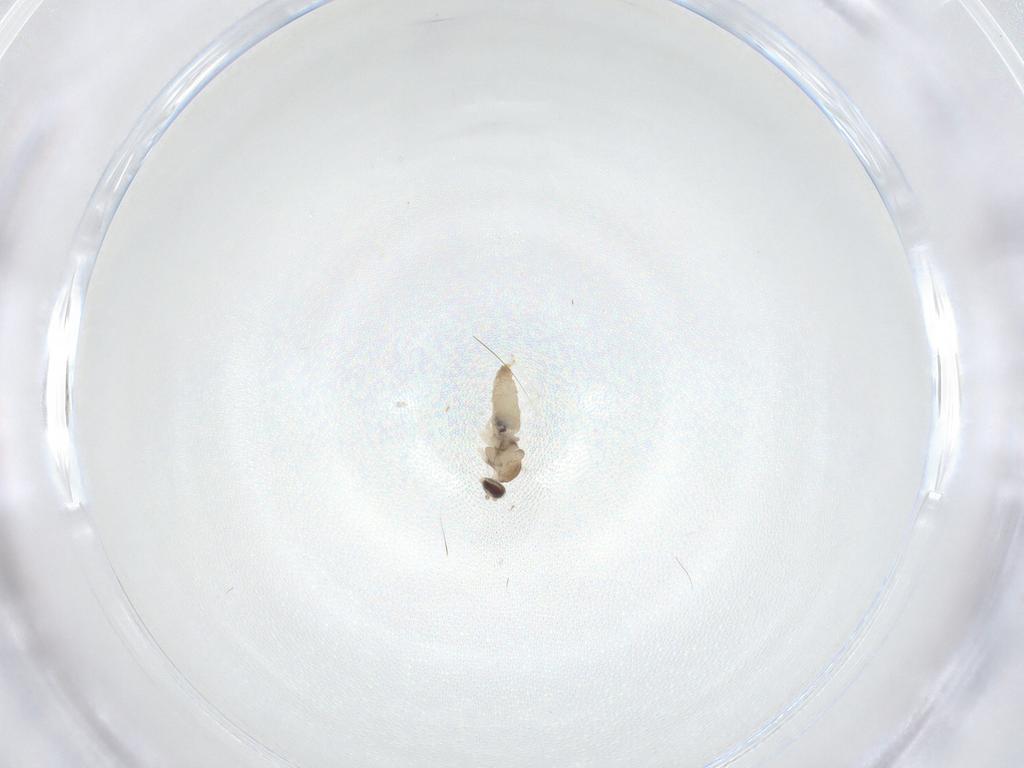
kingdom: Animalia
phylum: Arthropoda
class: Insecta
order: Diptera
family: Cecidomyiidae
